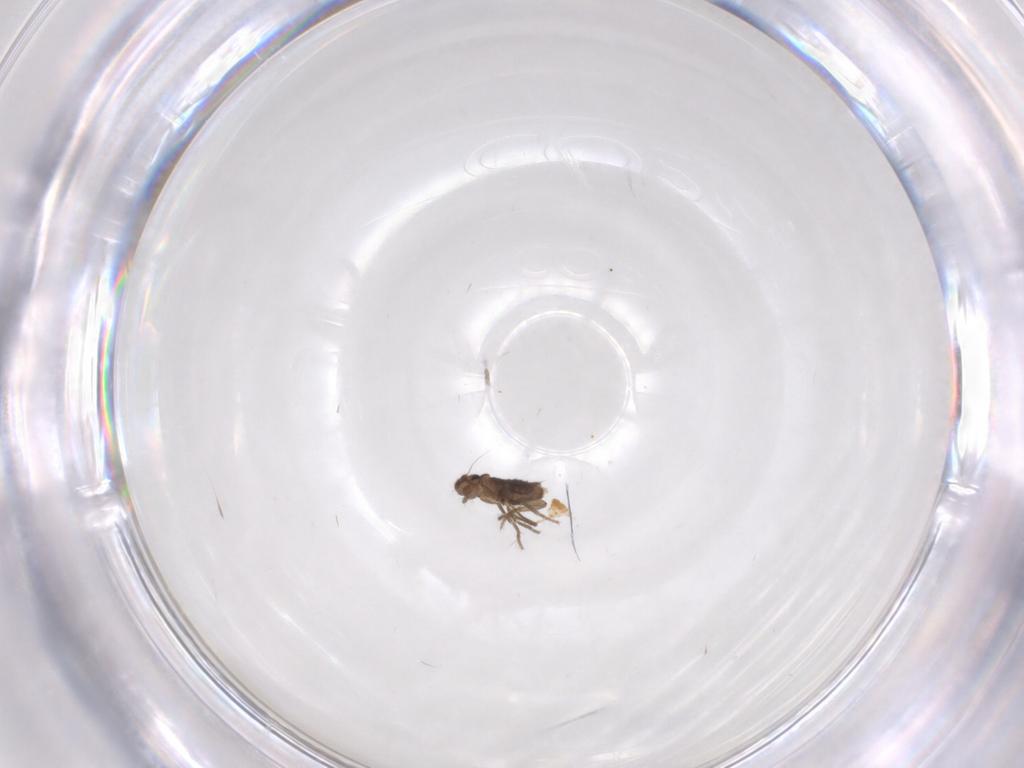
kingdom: Animalia
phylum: Arthropoda
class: Insecta
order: Diptera
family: Phoridae
